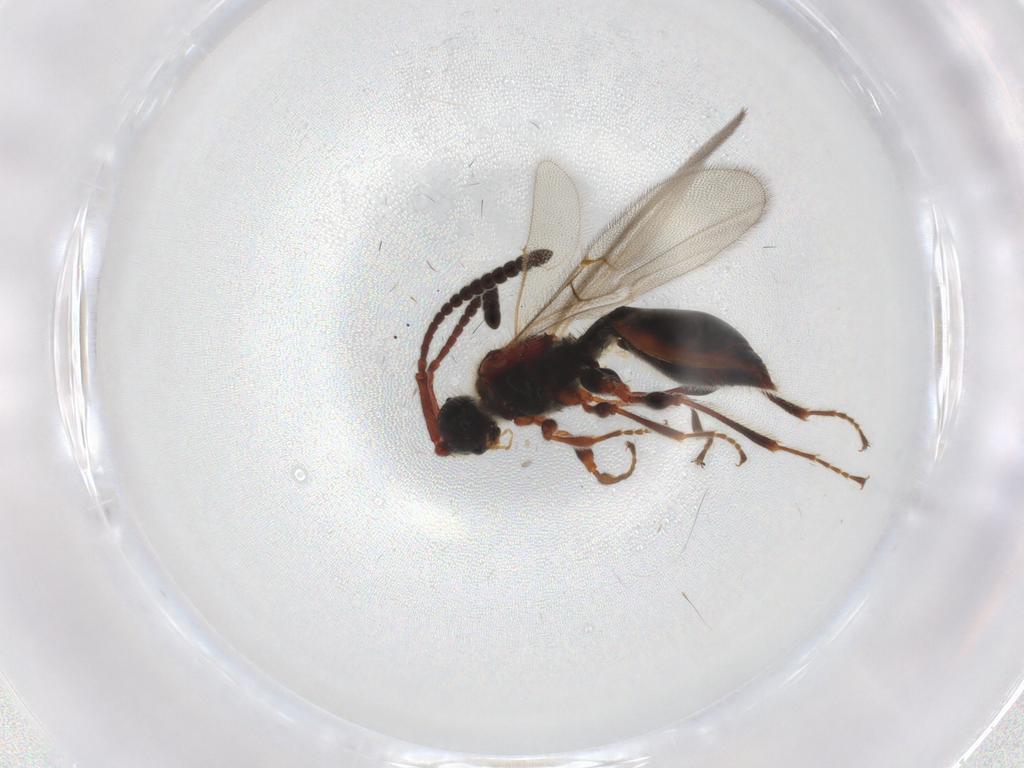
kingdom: Animalia
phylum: Arthropoda
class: Insecta
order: Hymenoptera
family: Diapriidae
